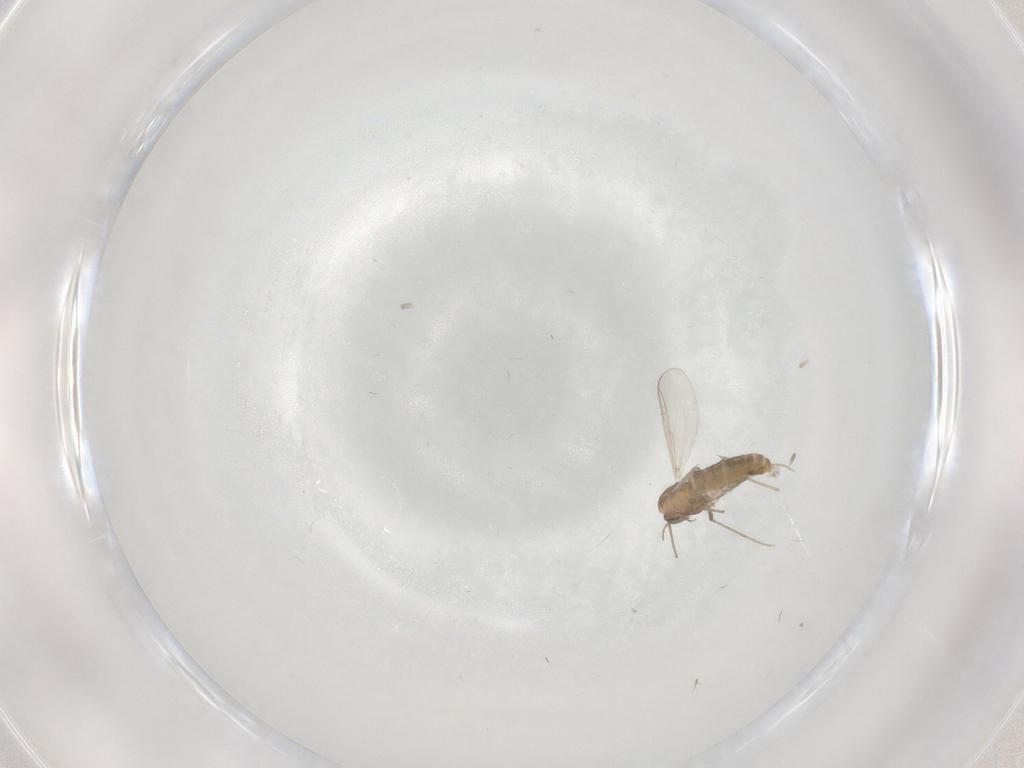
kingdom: Animalia
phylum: Arthropoda
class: Insecta
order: Diptera
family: Chironomidae
